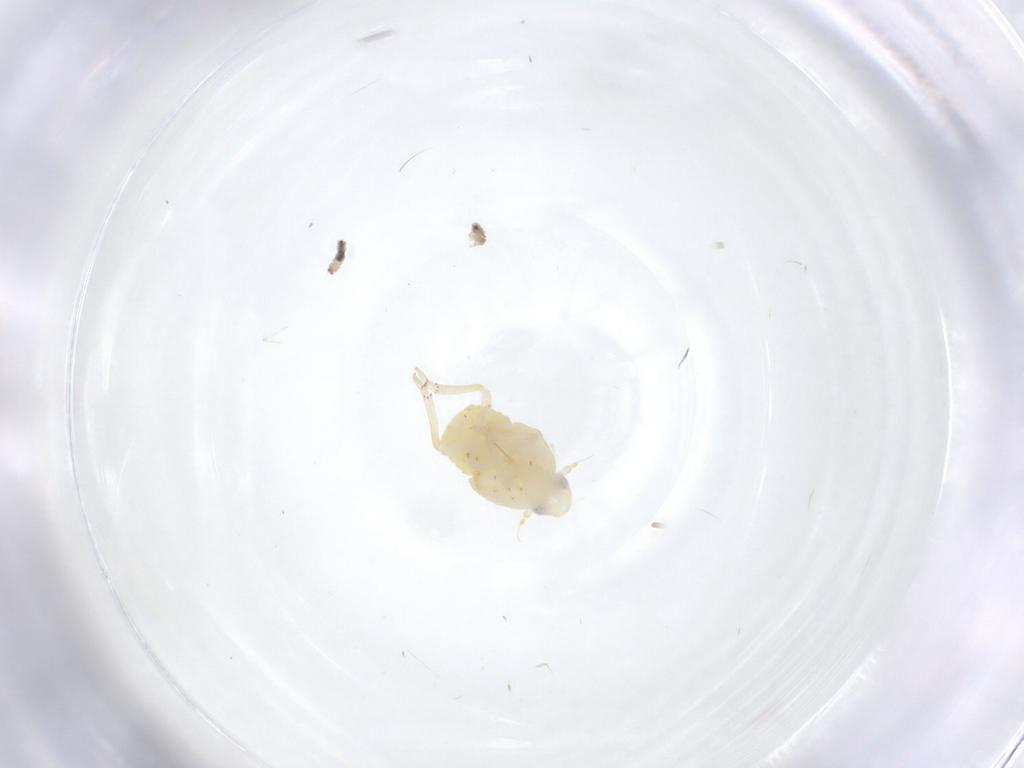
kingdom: Animalia
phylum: Arthropoda
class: Insecta
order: Diptera
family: Cecidomyiidae
